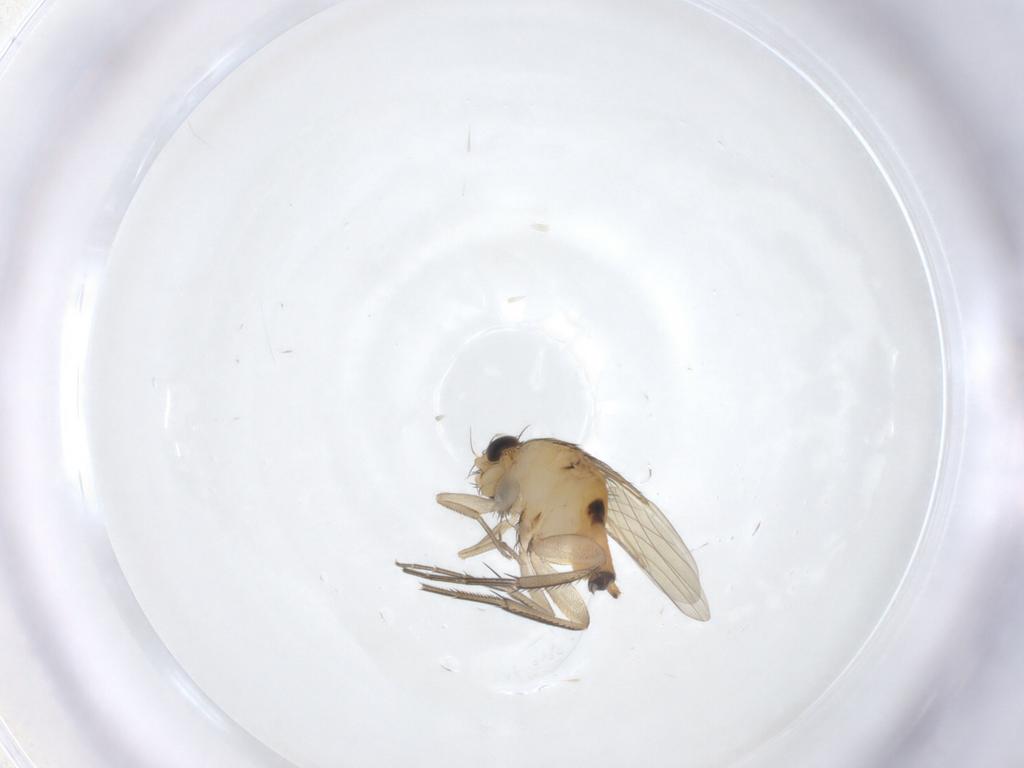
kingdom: Animalia
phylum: Arthropoda
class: Insecta
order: Diptera
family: Phoridae
